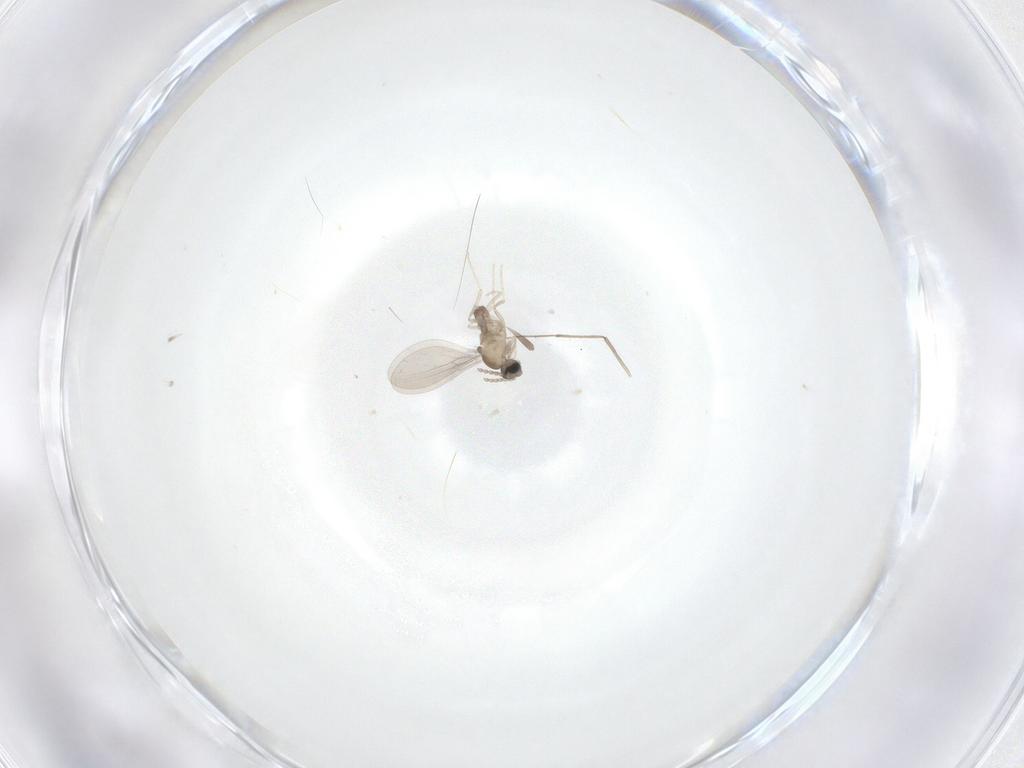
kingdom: Animalia
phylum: Arthropoda
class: Insecta
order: Diptera
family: Cecidomyiidae
